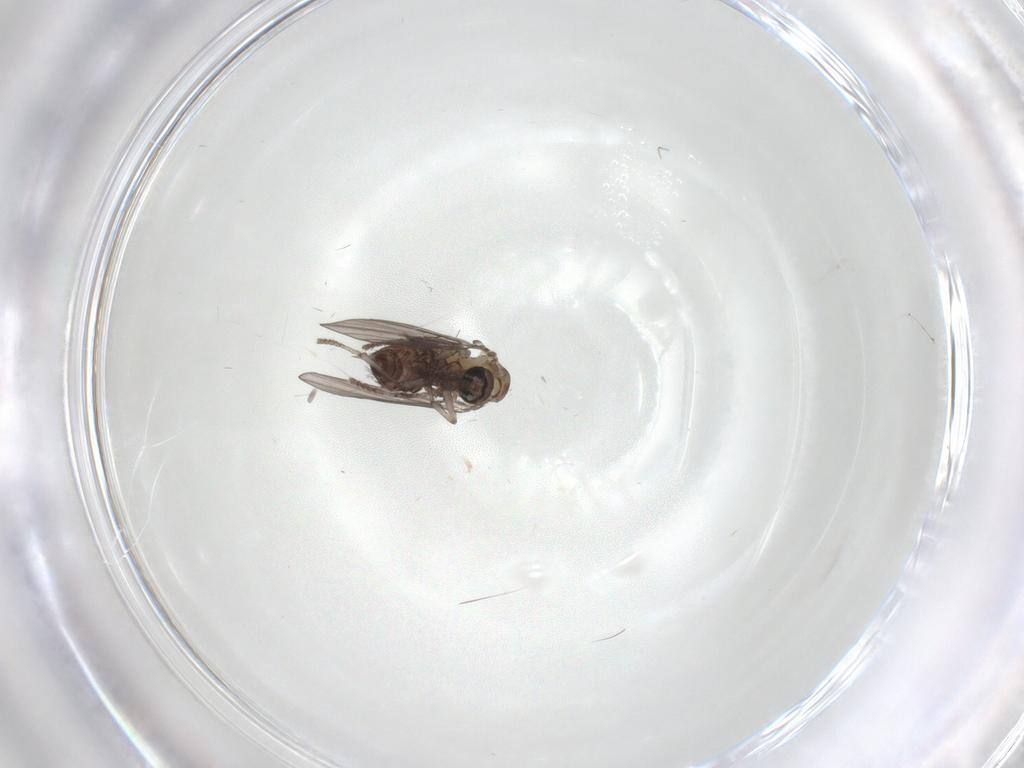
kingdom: Animalia
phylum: Arthropoda
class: Insecta
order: Diptera
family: Psychodidae
